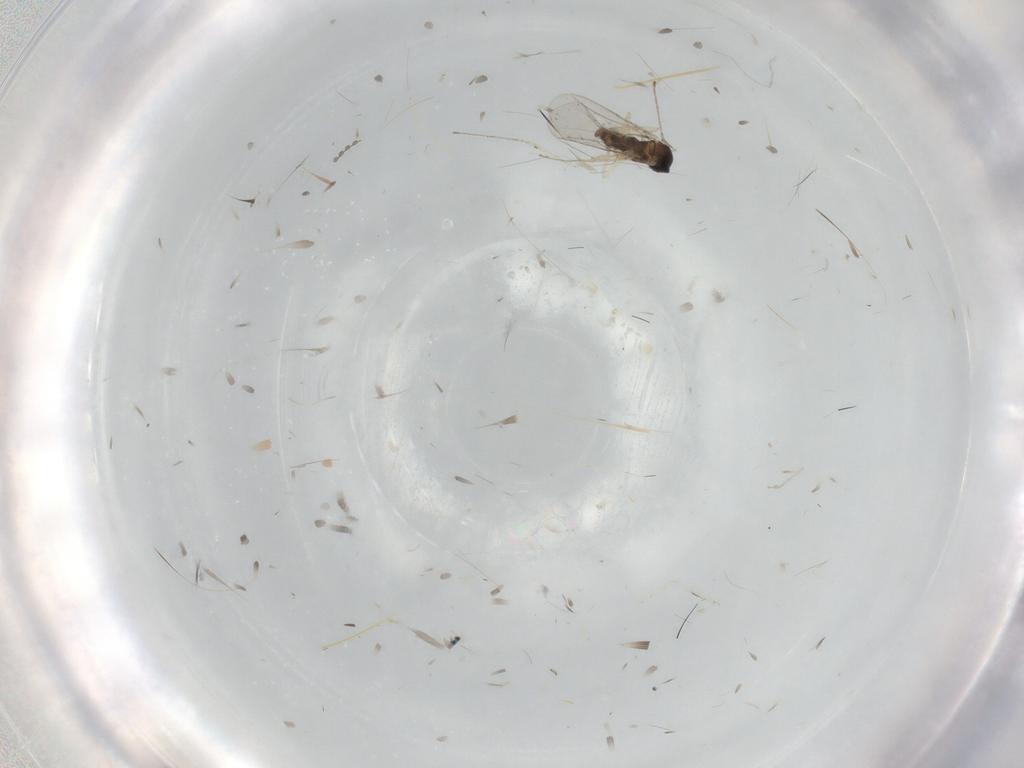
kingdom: Animalia
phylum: Arthropoda
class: Insecta
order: Diptera
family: Cecidomyiidae
